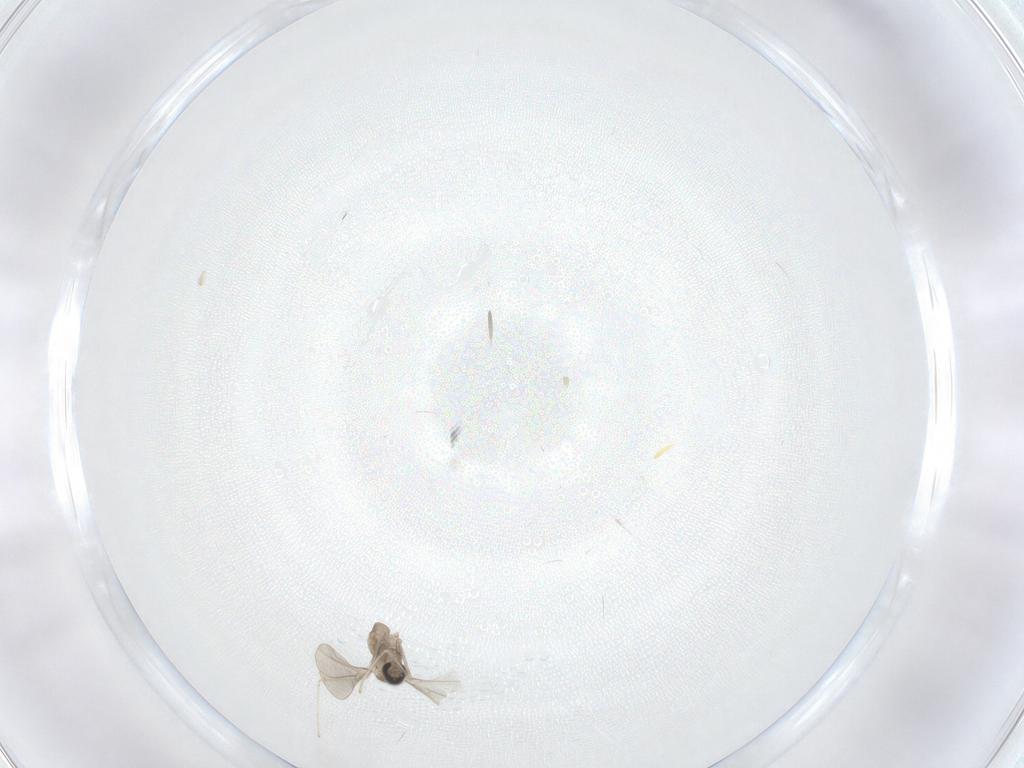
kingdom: Animalia
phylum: Arthropoda
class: Insecta
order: Diptera
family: Cecidomyiidae
